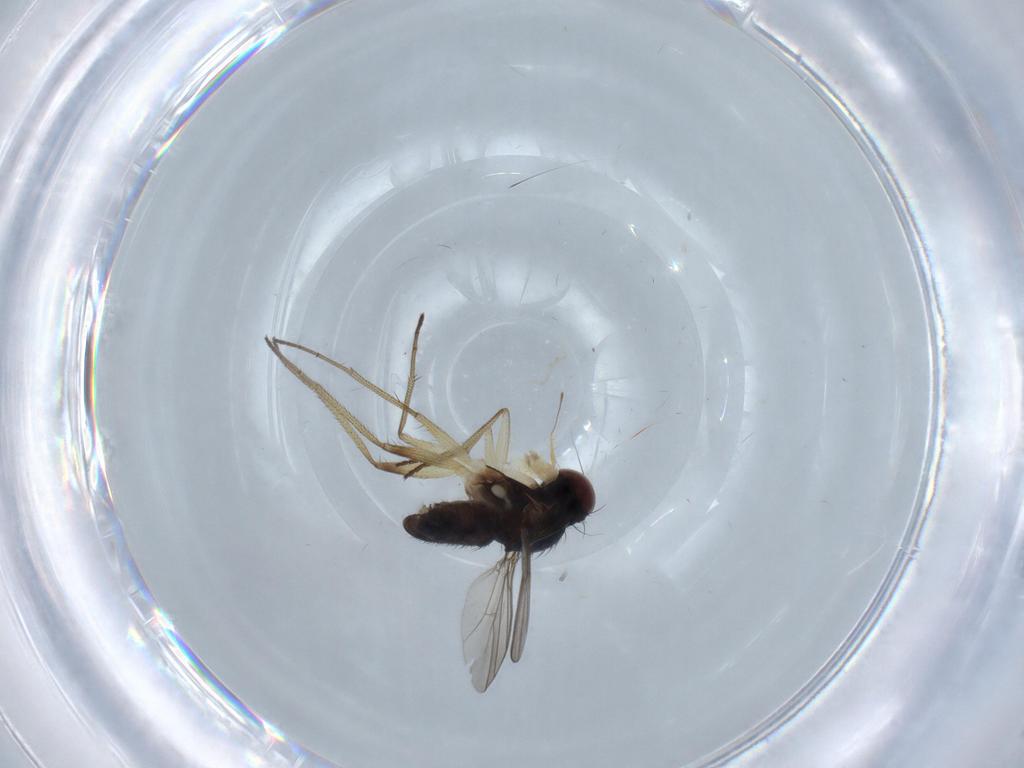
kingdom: Animalia
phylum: Arthropoda
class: Insecta
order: Diptera
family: Dolichopodidae
